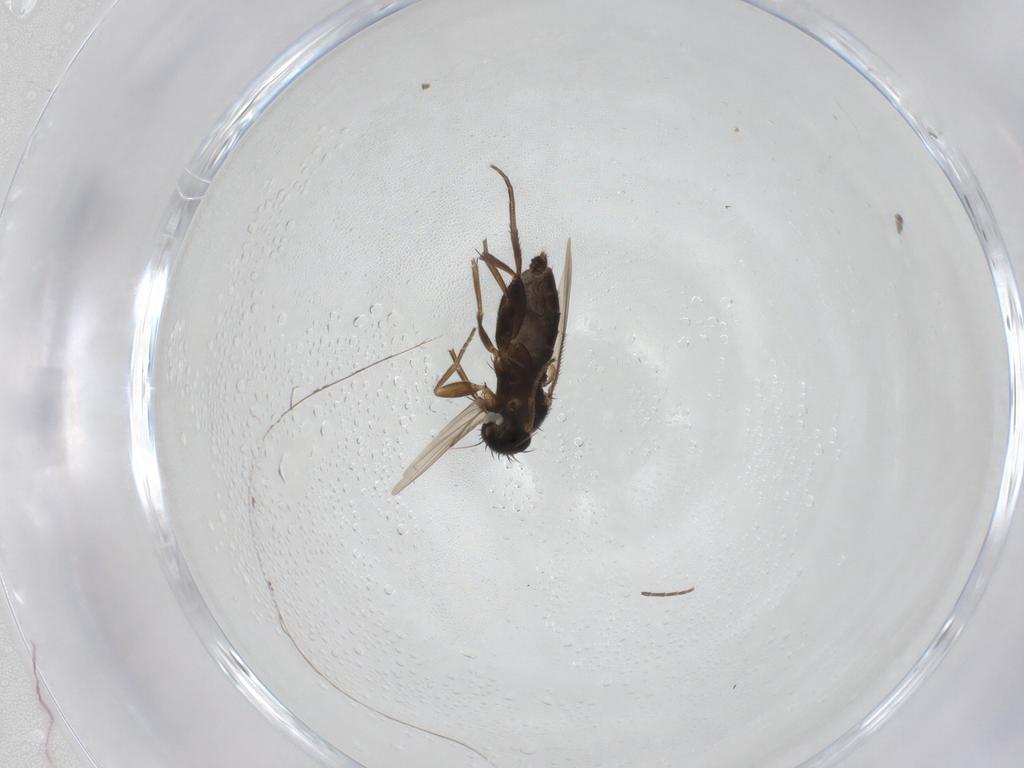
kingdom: Animalia
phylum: Arthropoda
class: Insecta
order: Diptera
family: Phoridae
